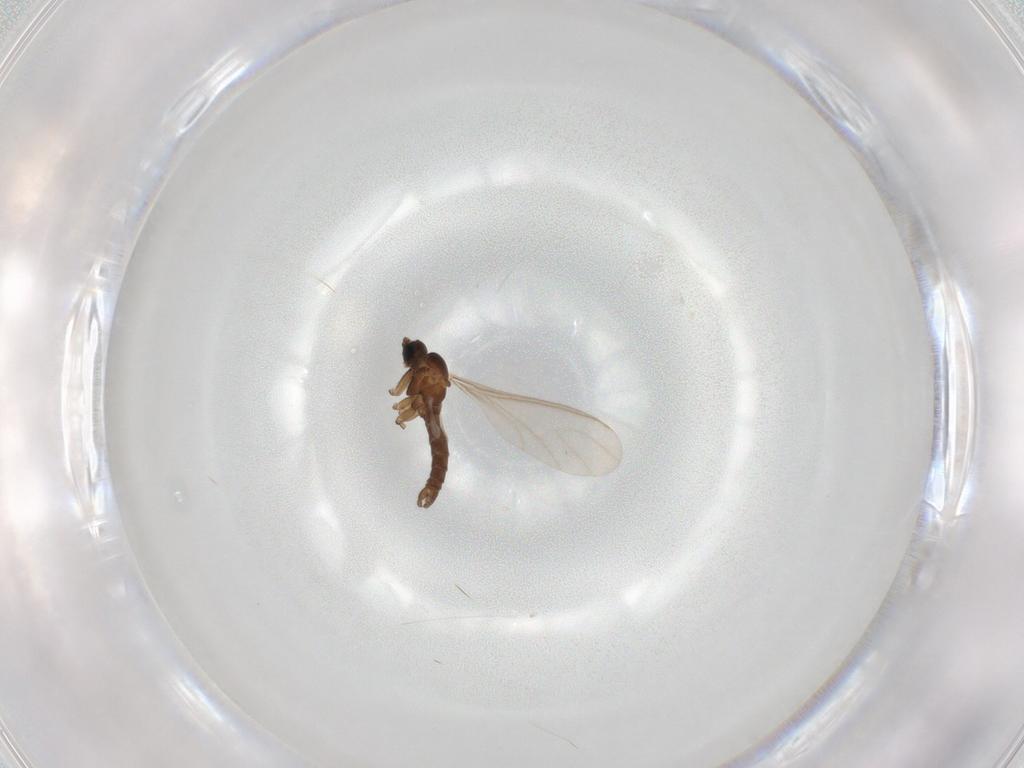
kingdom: Animalia
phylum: Arthropoda
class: Insecta
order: Diptera
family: Sciaridae
